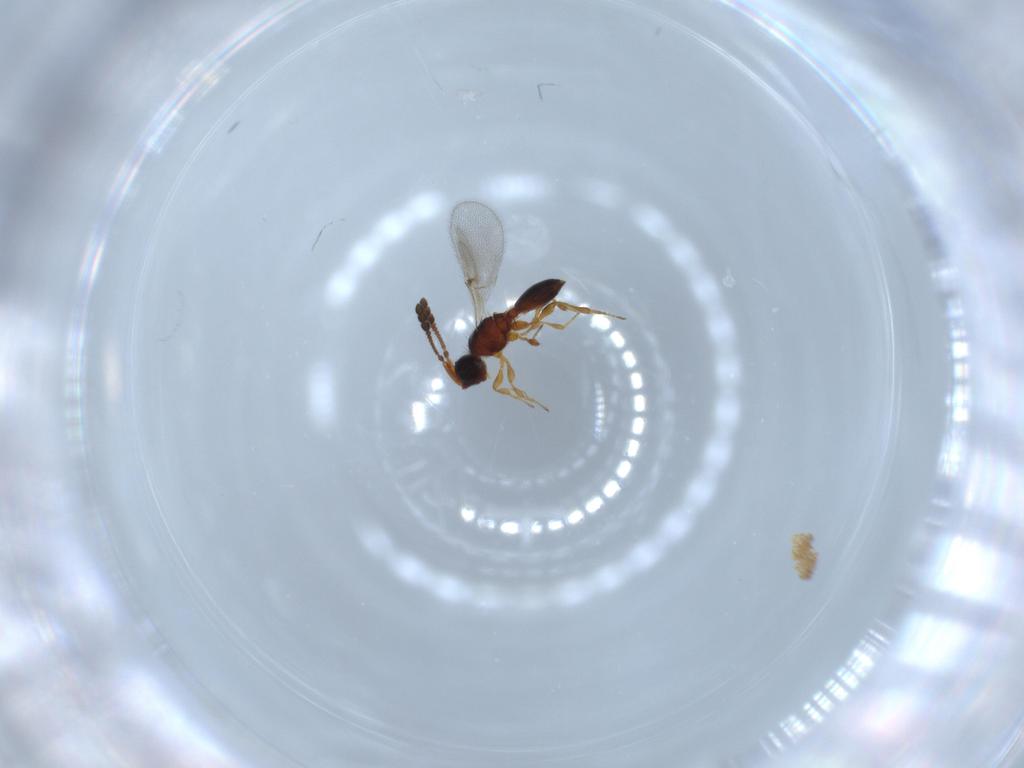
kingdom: Animalia
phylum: Arthropoda
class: Insecta
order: Hymenoptera
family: Diapriidae
